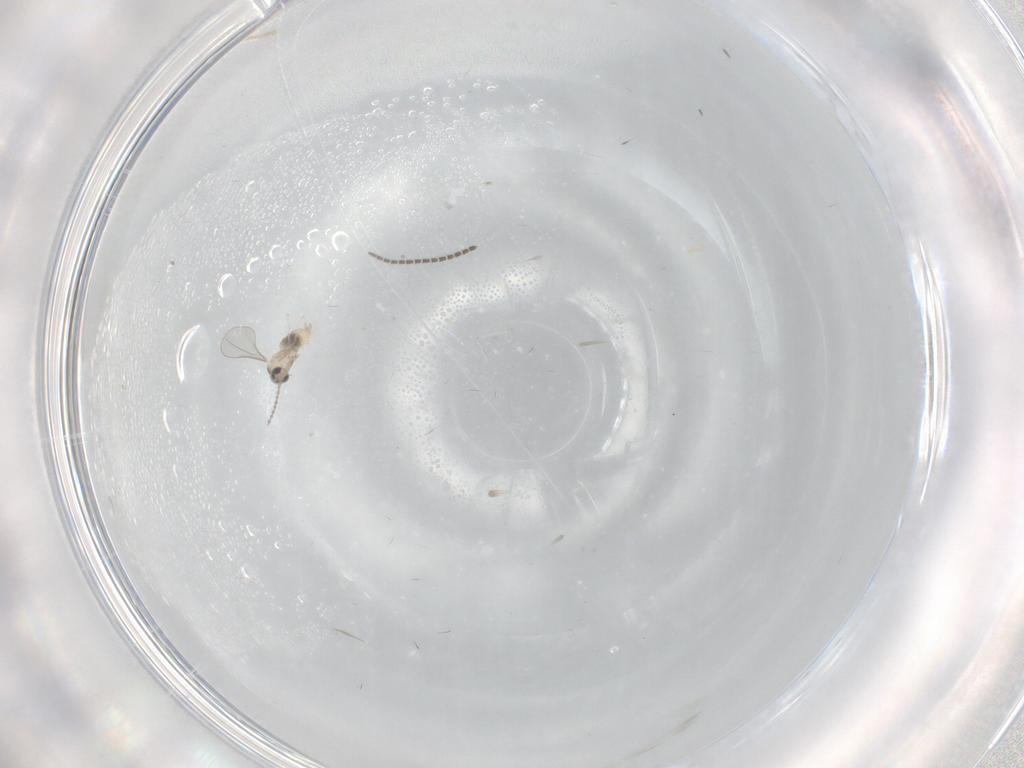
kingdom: Animalia
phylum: Arthropoda
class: Insecta
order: Diptera
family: Cecidomyiidae
